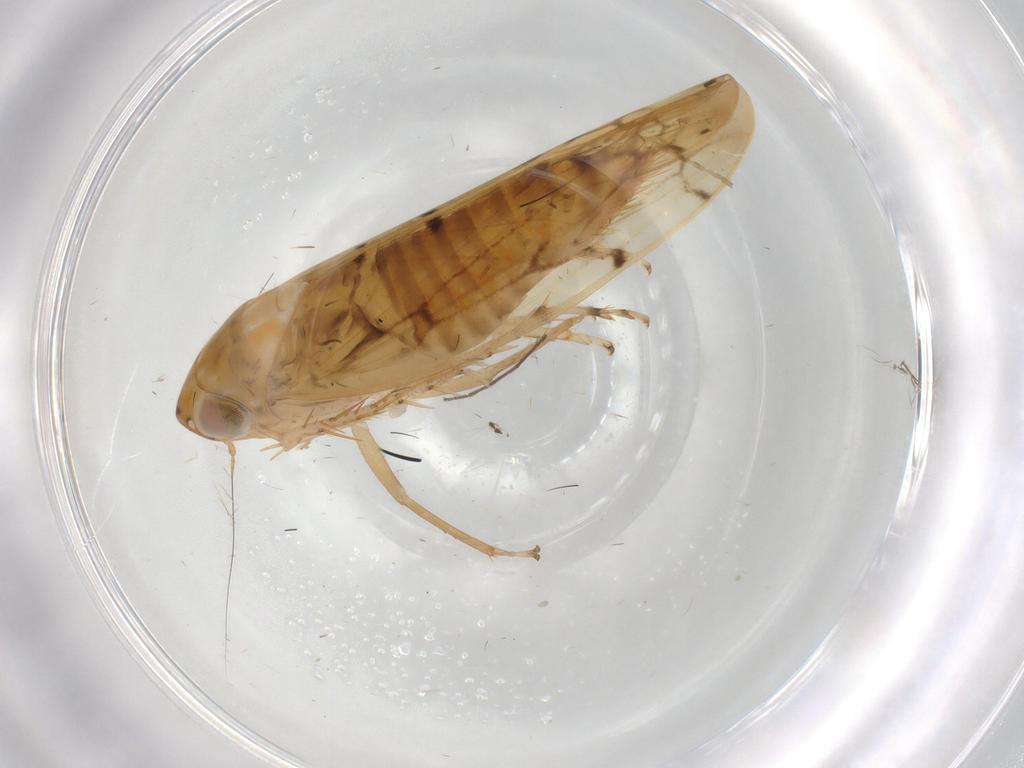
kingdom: Animalia
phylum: Arthropoda
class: Insecta
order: Hemiptera
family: Cicadellidae
